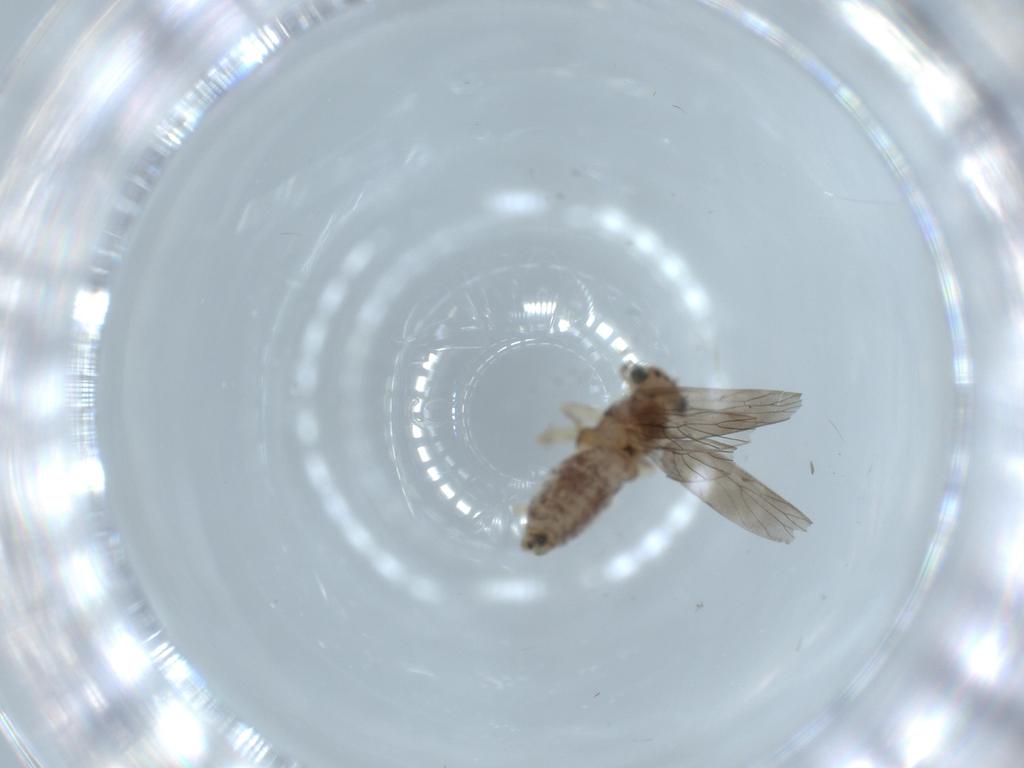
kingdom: Animalia
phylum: Arthropoda
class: Insecta
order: Psocodea
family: Lepidopsocidae
